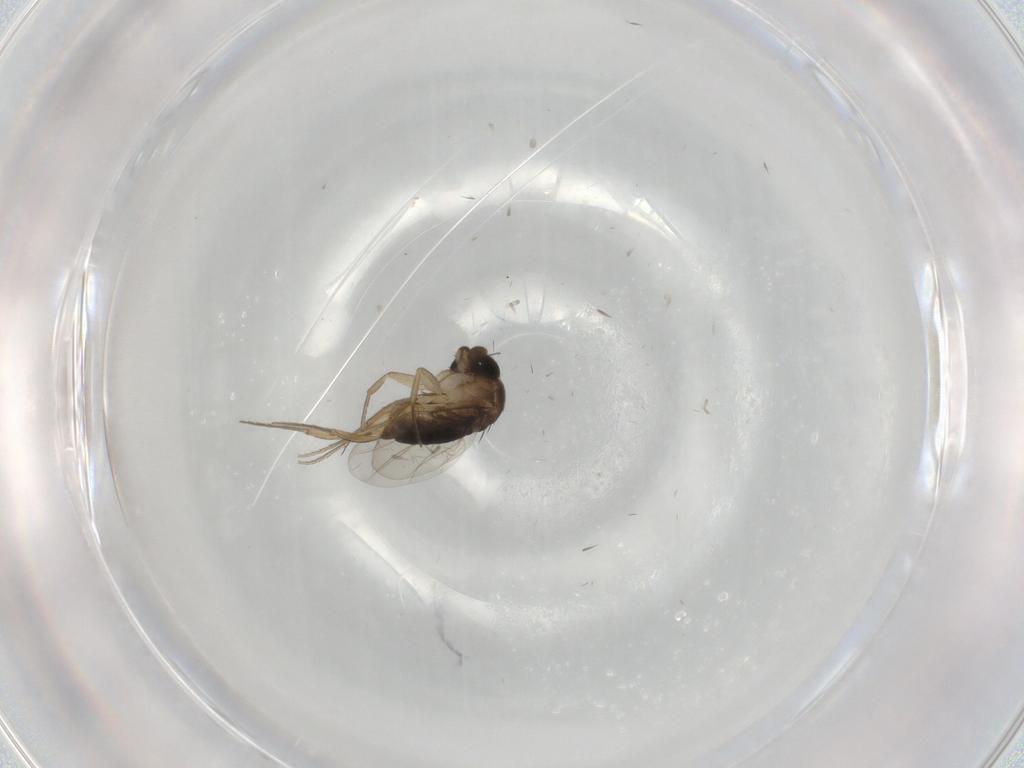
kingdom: Animalia
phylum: Arthropoda
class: Insecta
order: Diptera
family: Phoridae
